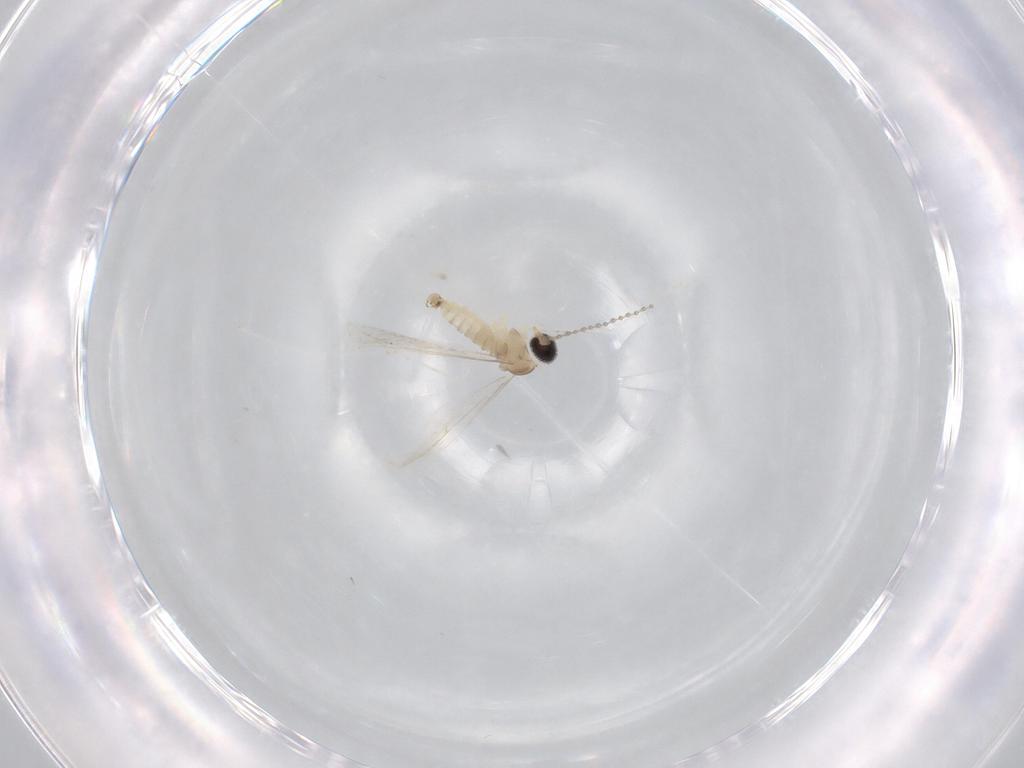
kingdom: Animalia
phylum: Arthropoda
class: Insecta
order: Diptera
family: Cecidomyiidae
